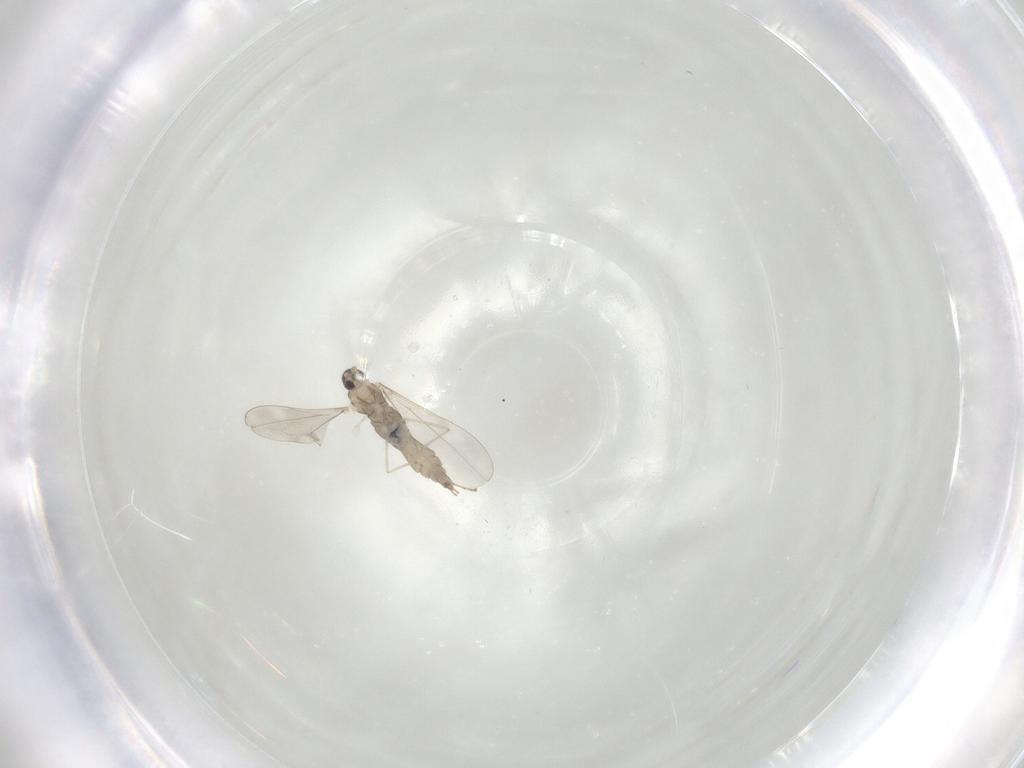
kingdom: Animalia
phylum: Arthropoda
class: Insecta
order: Diptera
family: Cecidomyiidae
